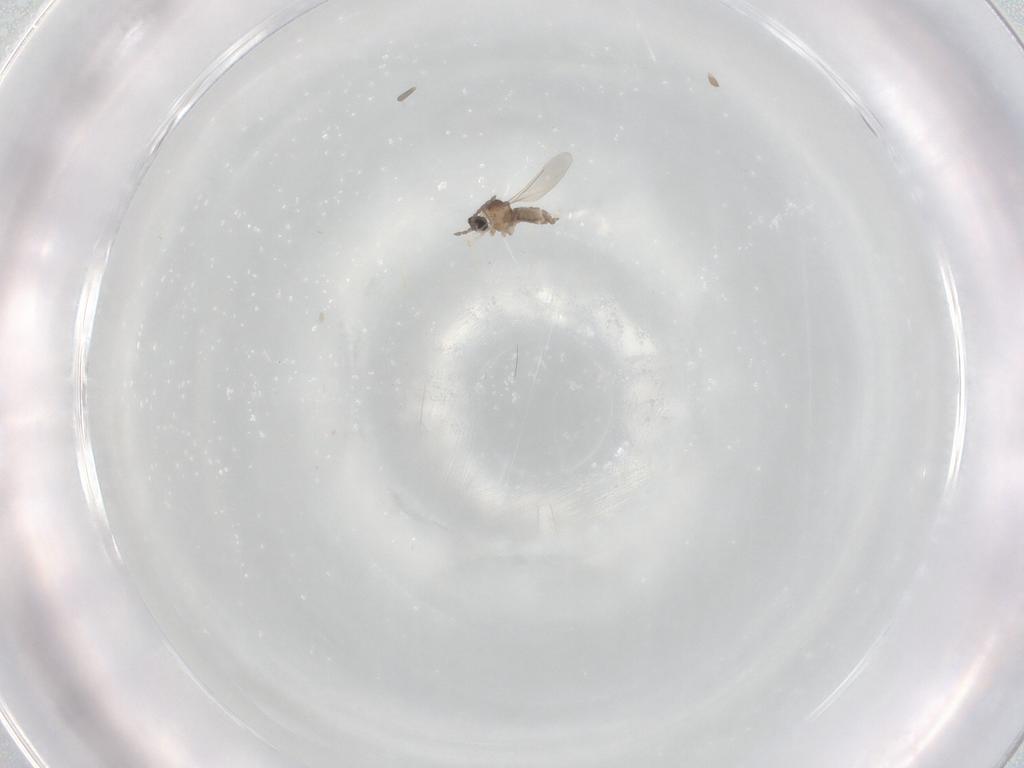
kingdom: Animalia
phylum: Arthropoda
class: Insecta
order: Diptera
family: Cecidomyiidae
